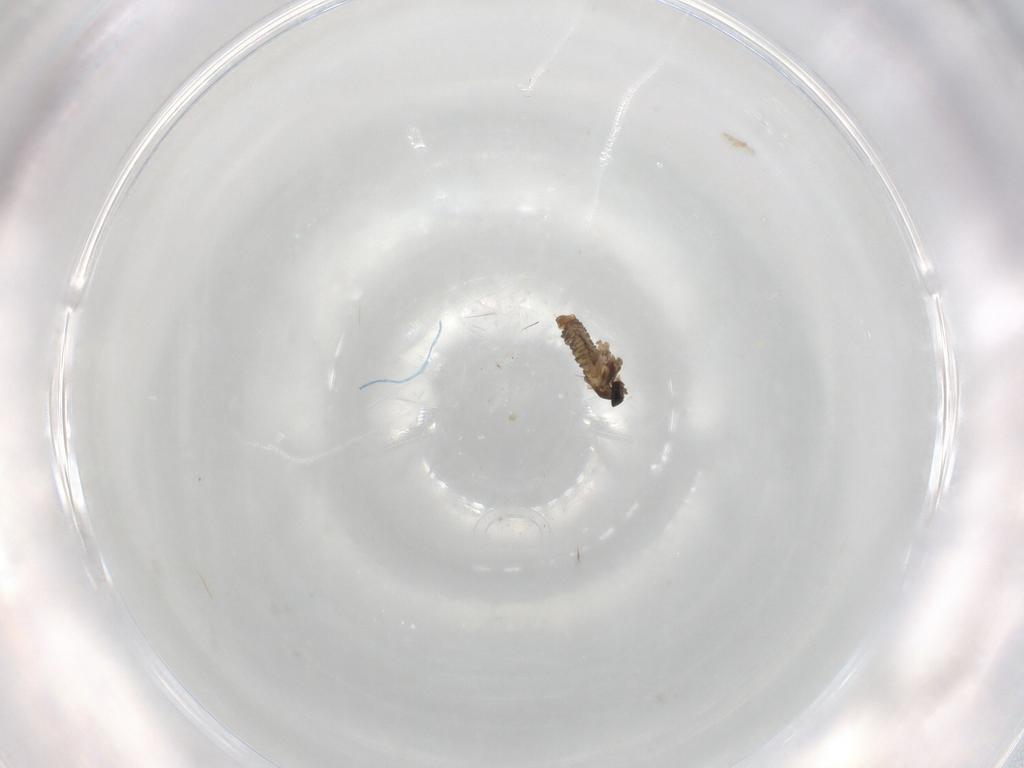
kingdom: Animalia
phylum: Arthropoda
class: Insecta
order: Diptera
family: Cecidomyiidae
